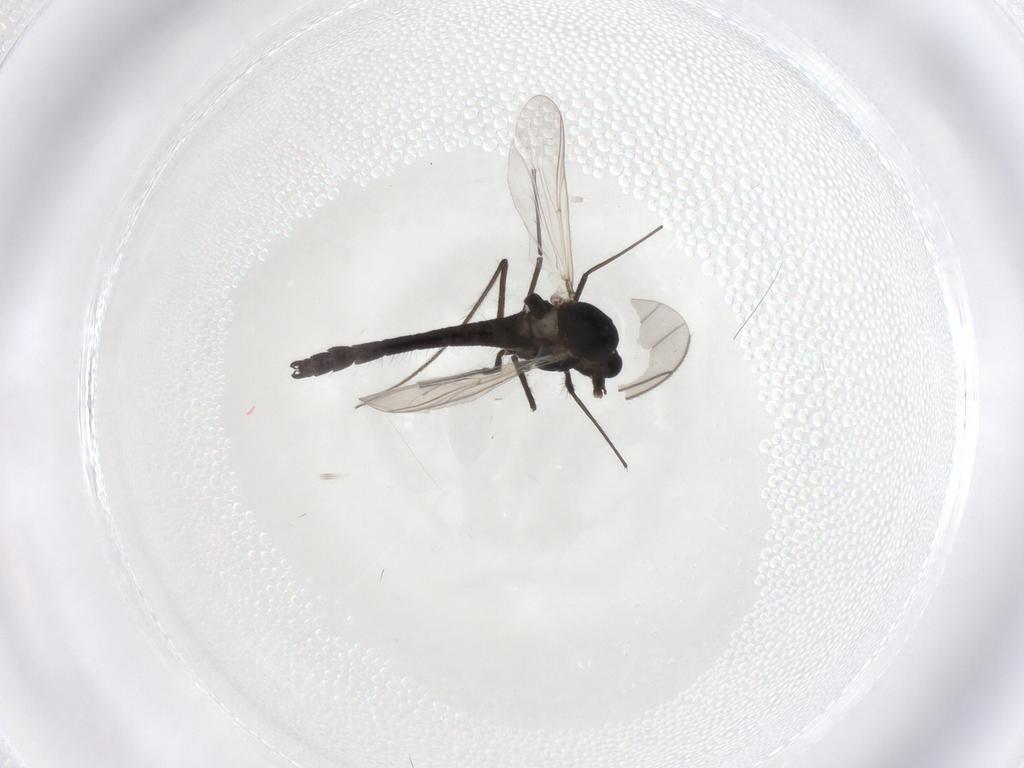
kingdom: Animalia
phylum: Arthropoda
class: Insecta
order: Diptera
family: Chironomidae
